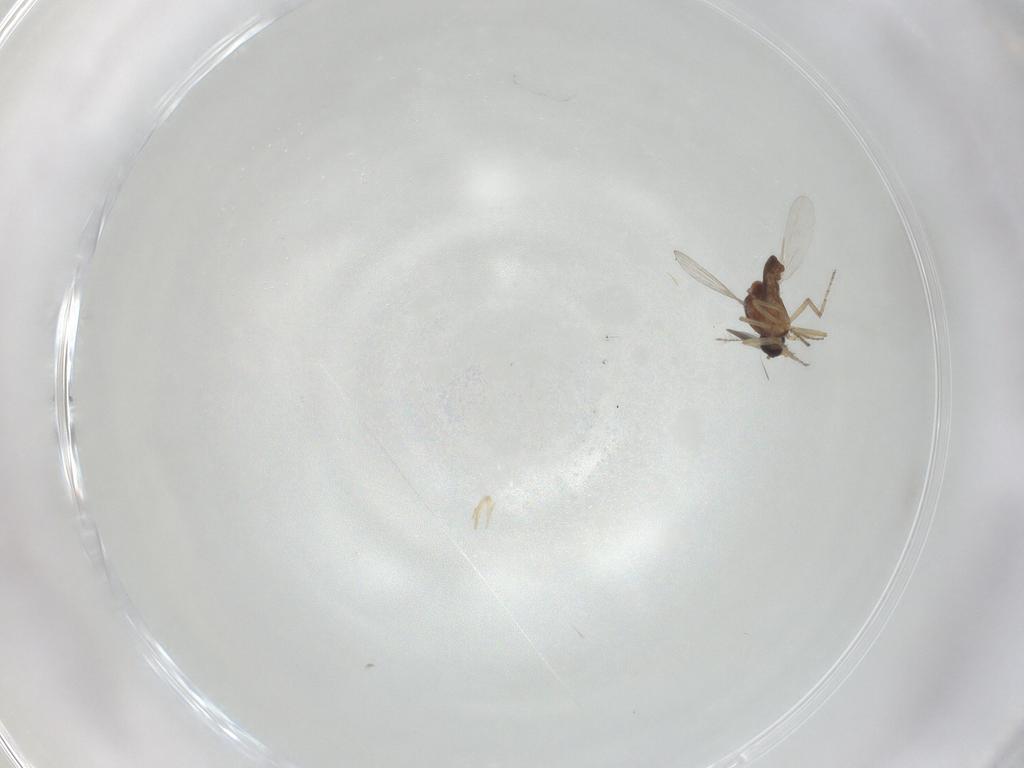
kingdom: Animalia
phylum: Arthropoda
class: Insecta
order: Diptera
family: Ceratopogonidae
